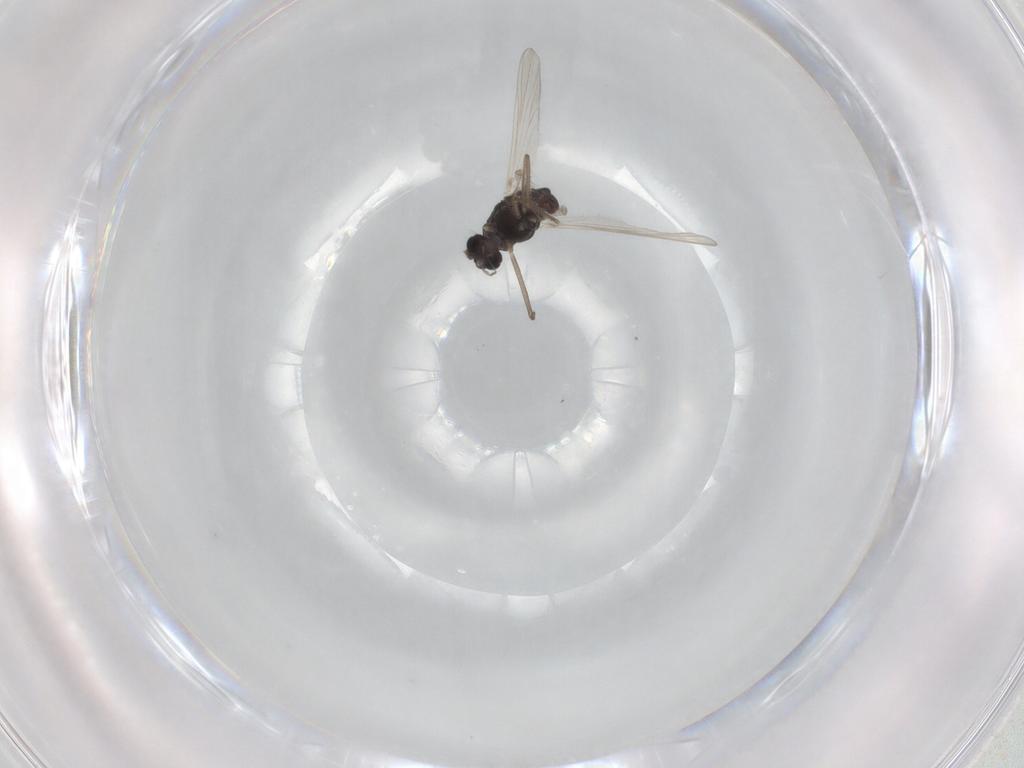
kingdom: Animalia
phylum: Arthropoda
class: Insecta
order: Diptera
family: Chironomidae
